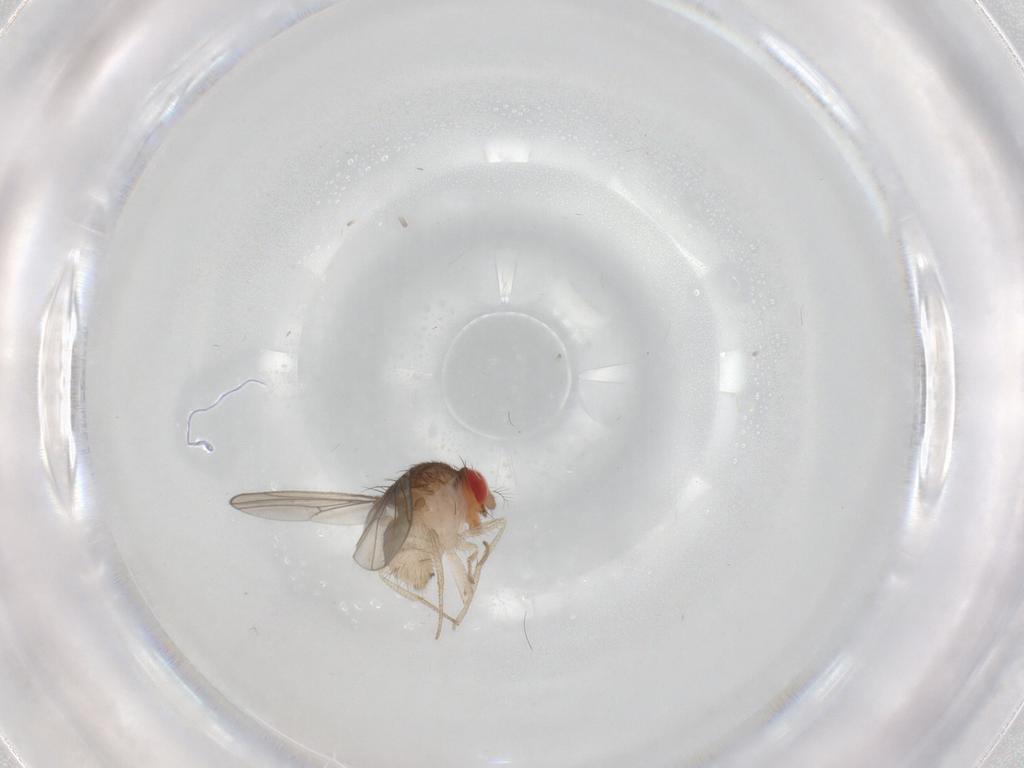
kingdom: Animalia
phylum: Arthropoda
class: Insecta
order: Diptera
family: Drosophilidae
